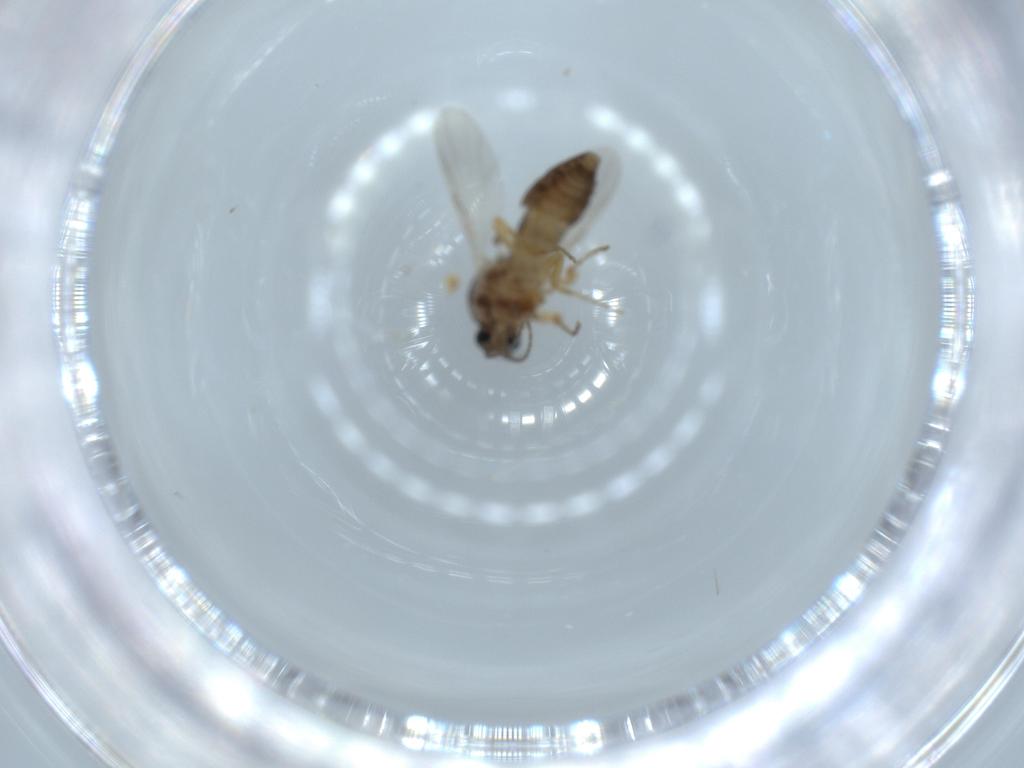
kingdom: Animalia
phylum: Arthropoda
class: Insecta
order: Diptera
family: Ceratopogonidae
